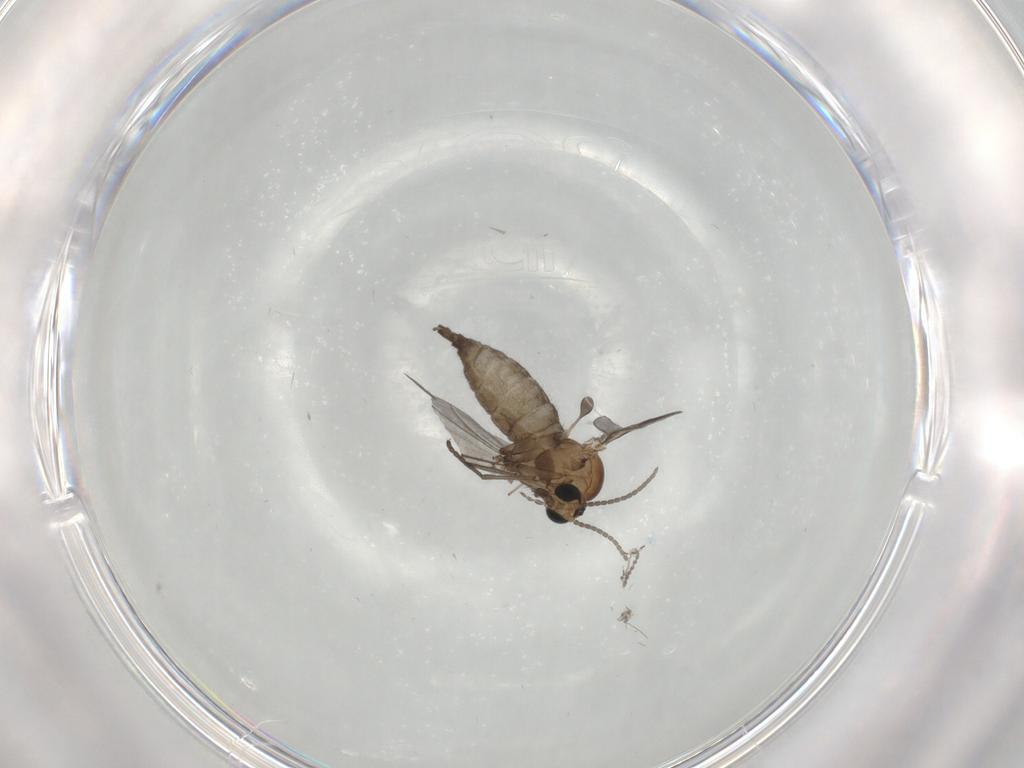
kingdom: Animalia
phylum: Arthropoda
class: Insecta
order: Diptera
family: Sciaridae
